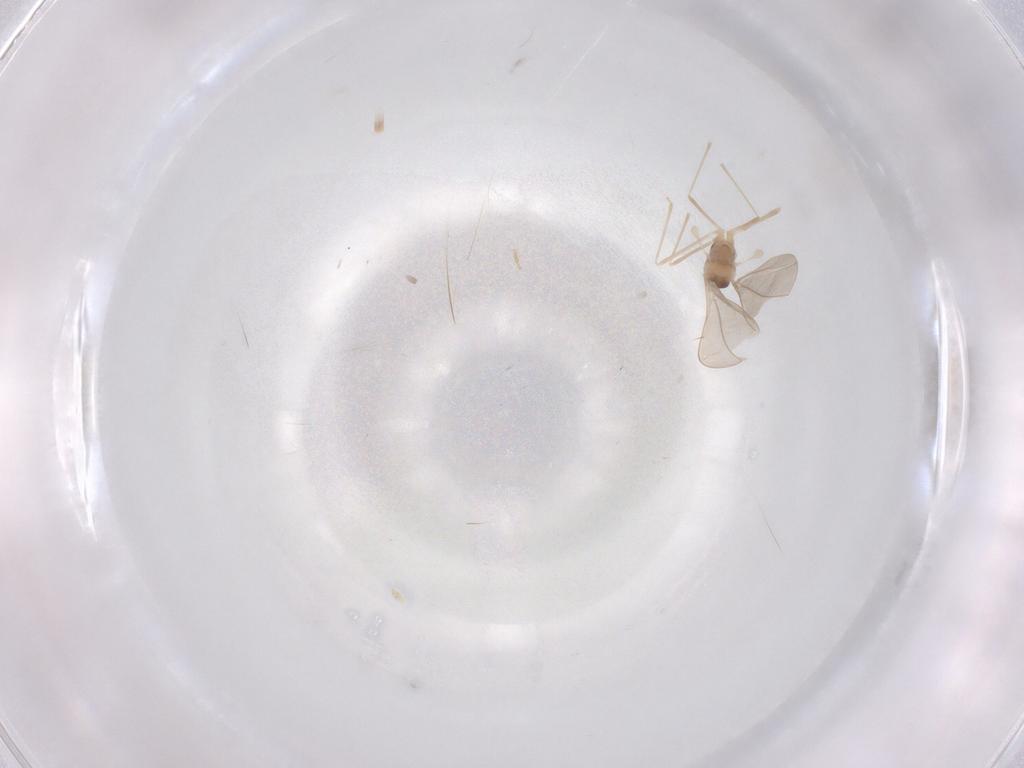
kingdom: Animalia
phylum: Arthropoda
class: Insecta
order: Diptera
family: Cecidomyiidae
